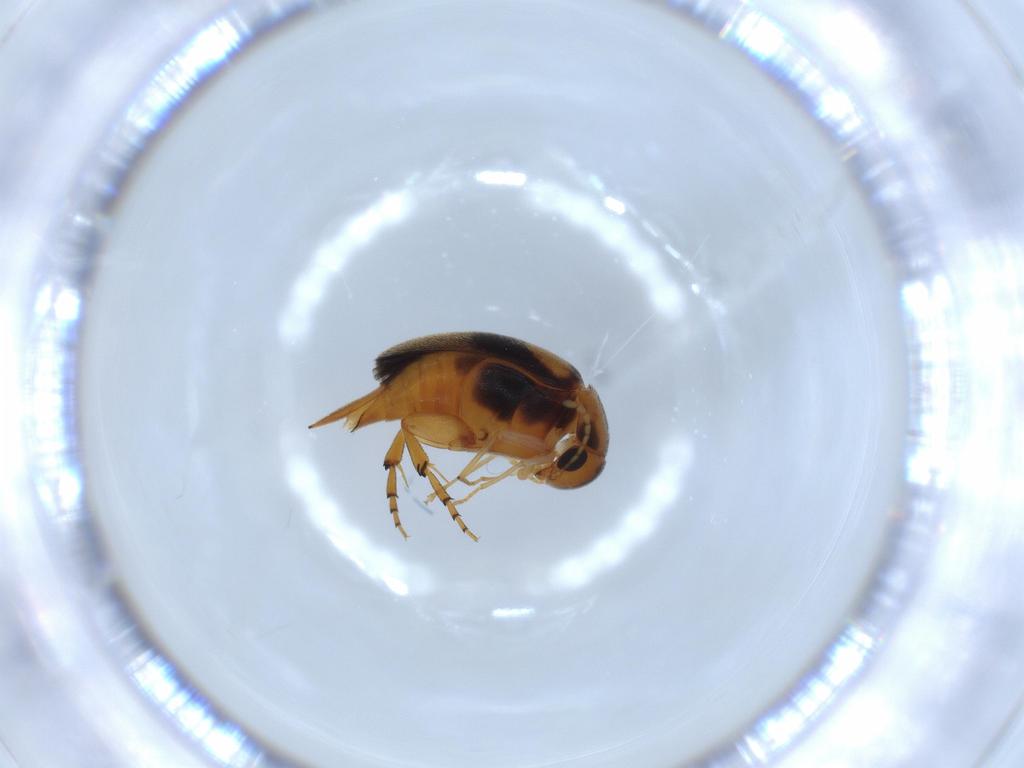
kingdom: Animalia
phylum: Arthropoda
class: Insecta
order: Coleoptera
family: Mordellidae
